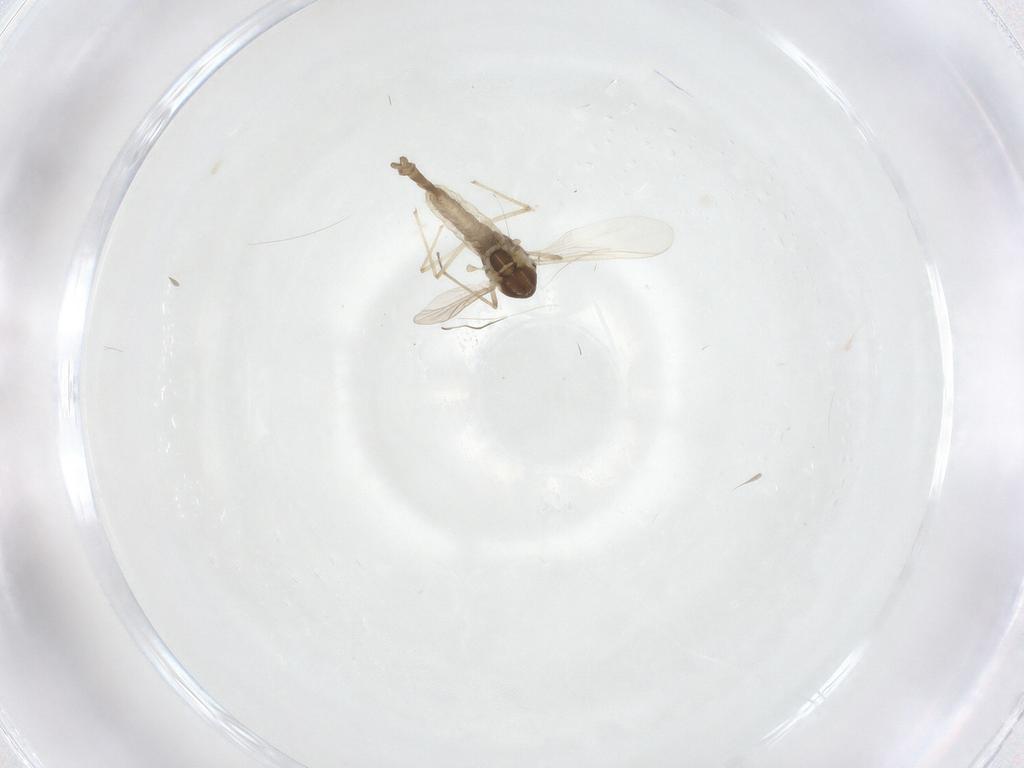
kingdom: Animalia
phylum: Arthropoda
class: Insecta
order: Diptera
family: Chironomidae
